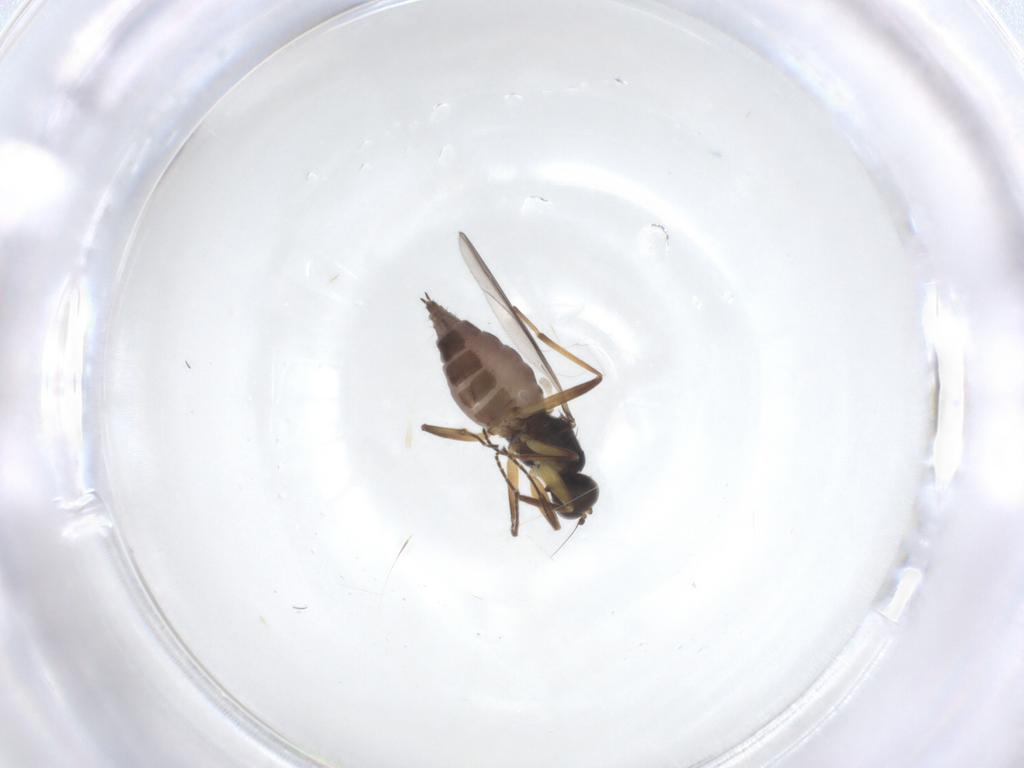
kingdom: Animalia
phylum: Arthropoda
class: Insecta
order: Diptera
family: Hybotidae
